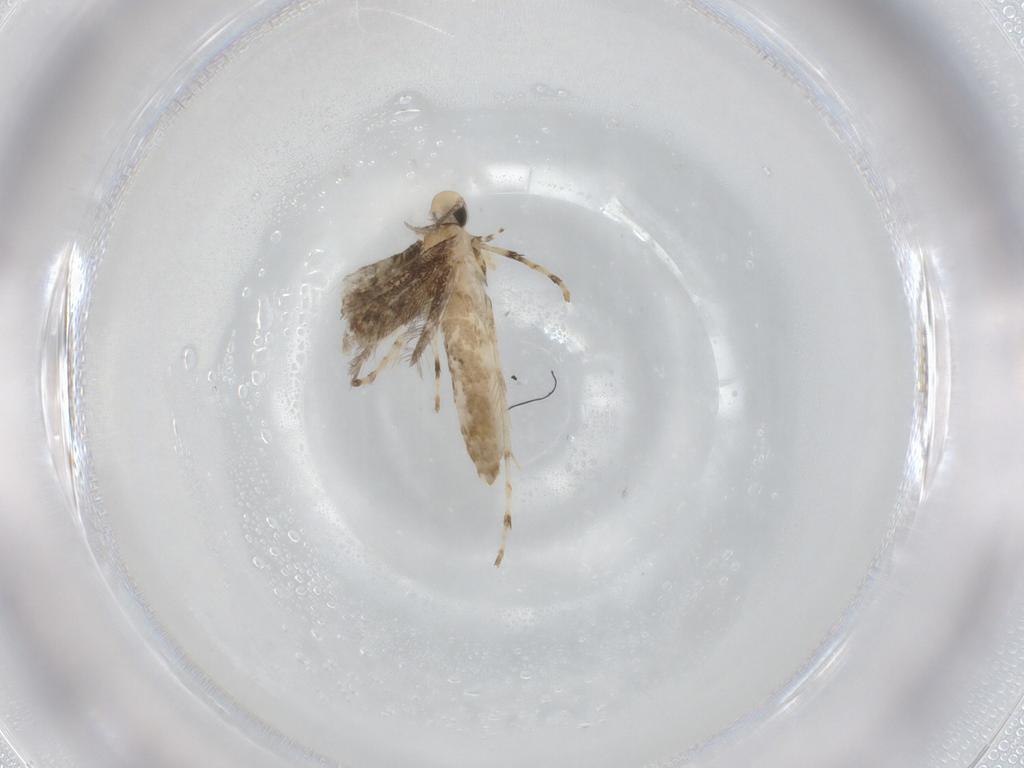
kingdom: Animalia
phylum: Arthropoda
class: Insecta
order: Lepidoptera
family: Gracillariidae
